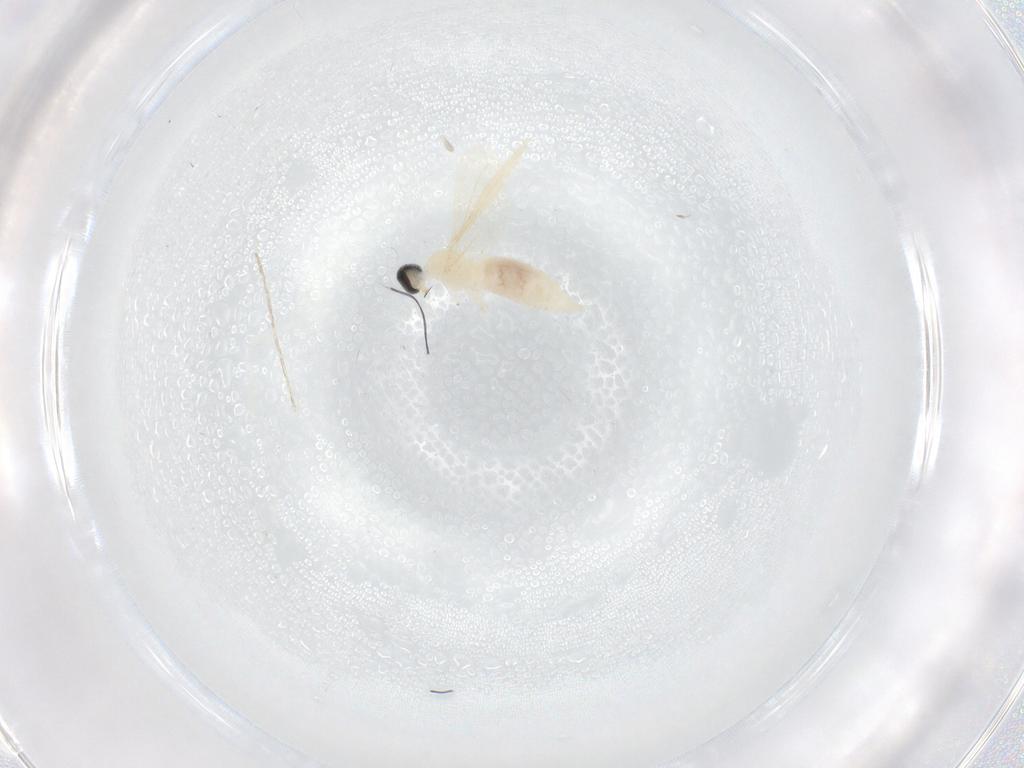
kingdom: Animalia
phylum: Arthropoda
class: Insecta
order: Diptera
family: Cecidomyiidae
